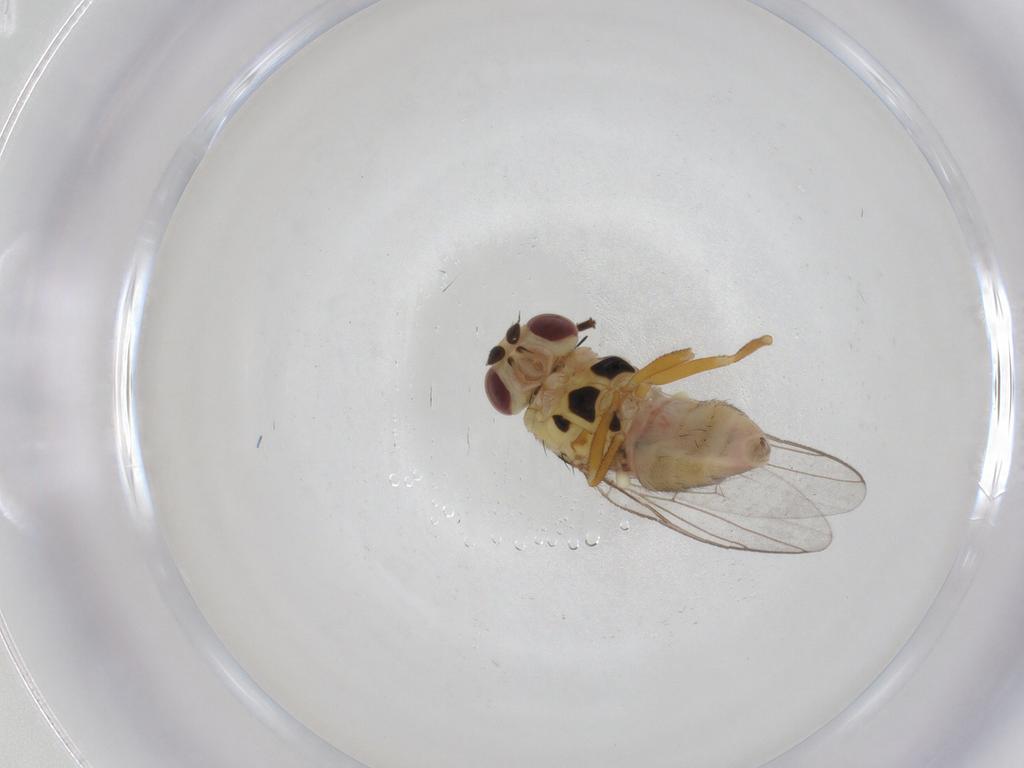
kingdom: Animalia
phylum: Arthropoda
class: Insecta
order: Diptera
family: Chloropidae
